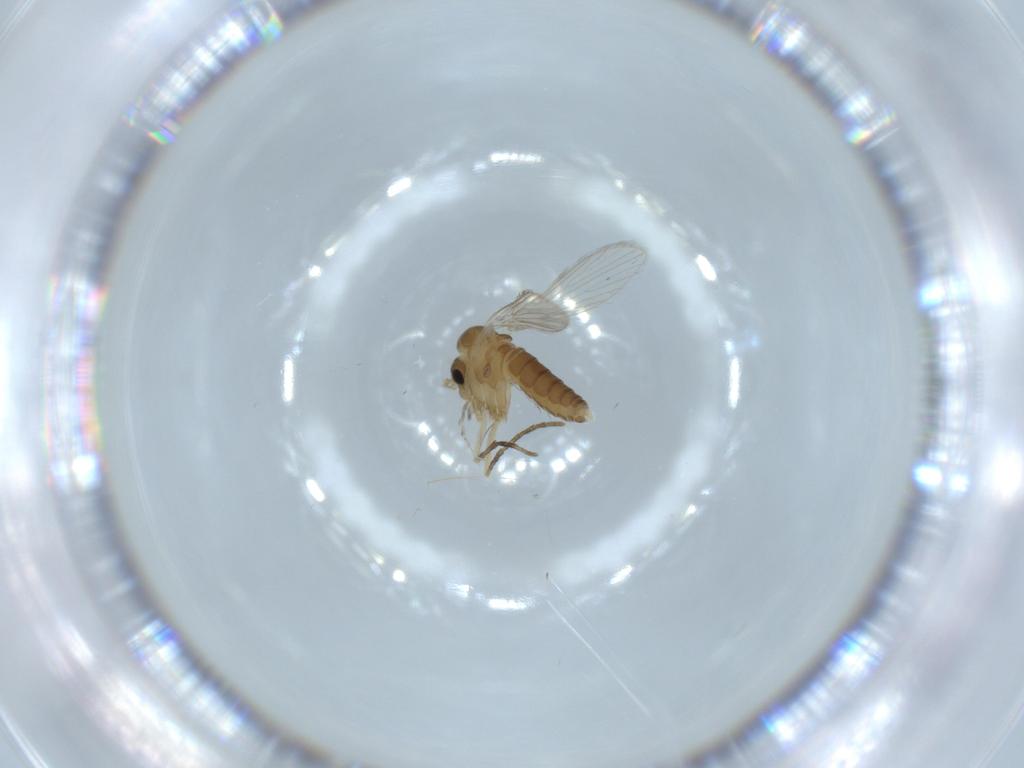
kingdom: Animalia
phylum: Arthropoda
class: Insecta
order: Diptera
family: Psychodidae
